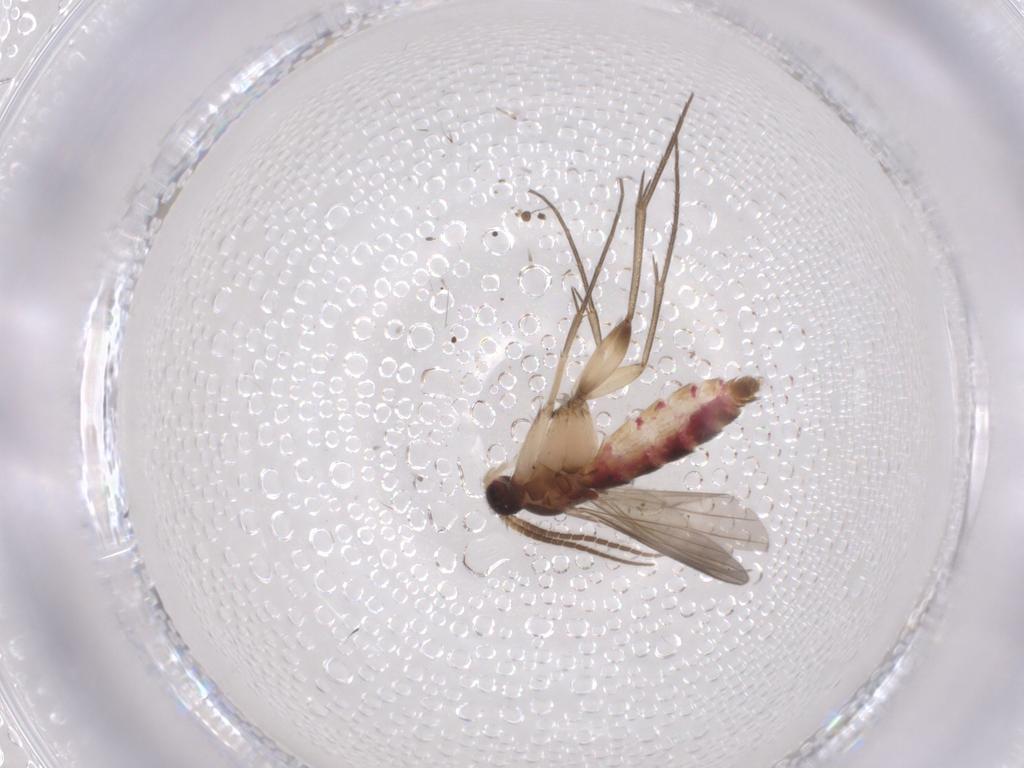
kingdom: Animalia
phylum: Arthropoda
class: Insecta
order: Diptera
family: Mycetophilidae
